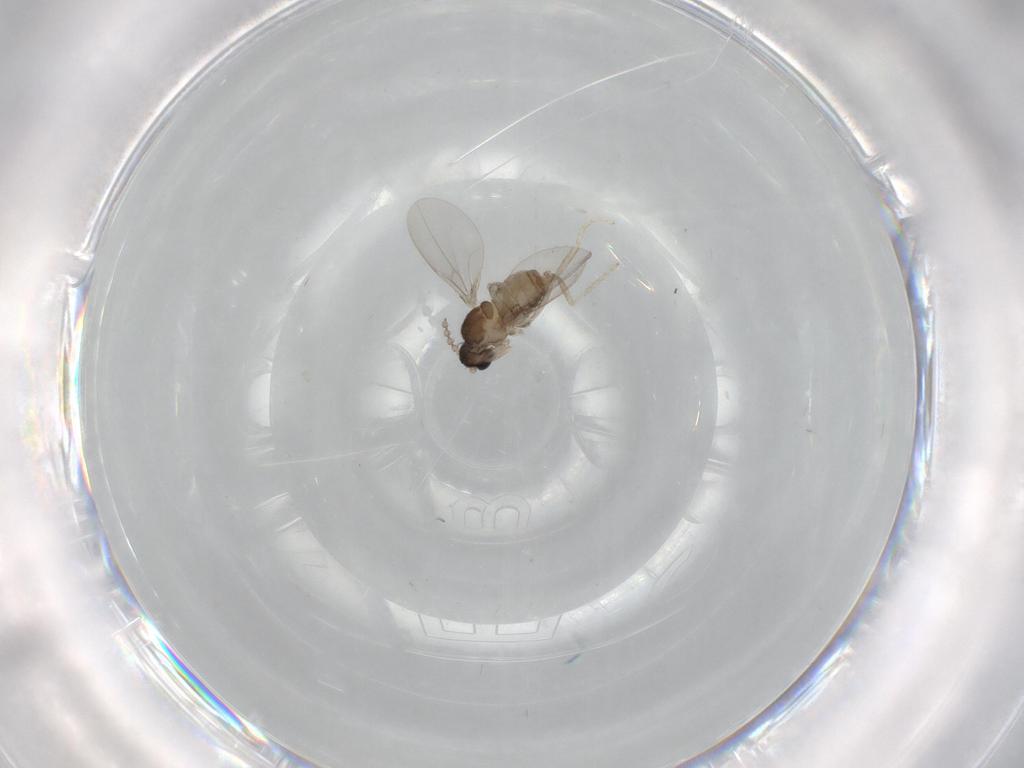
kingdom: Animalia
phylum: Arthropoda
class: Insecta
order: Diptera
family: Cecidomyiidae
